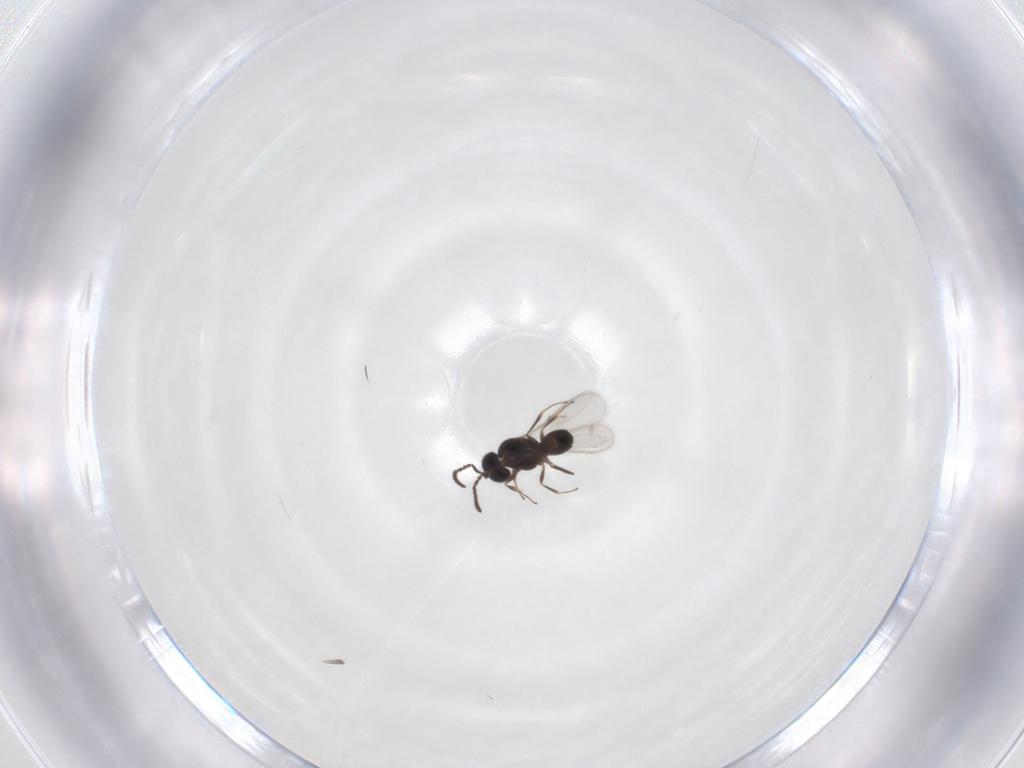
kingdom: Animalia
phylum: Arthropoda
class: Insecta
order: Hymenoptera
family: Scelionidae
